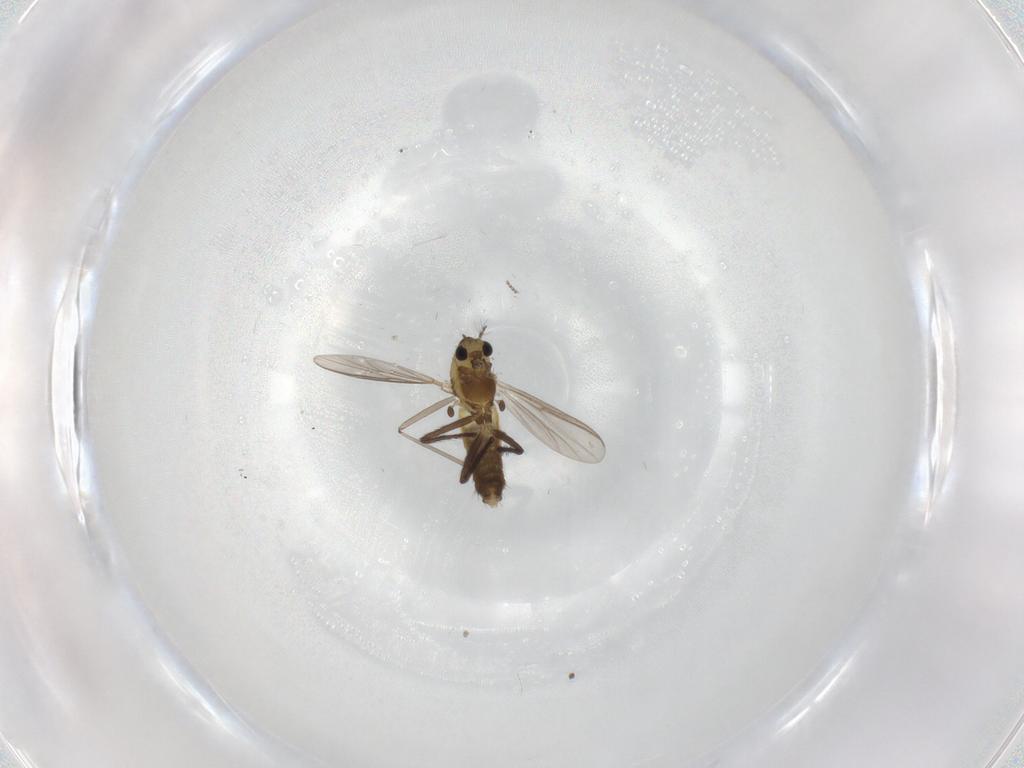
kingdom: Animalia
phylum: Arthropoda
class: Insecta
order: Diptera
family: Chironomidae
